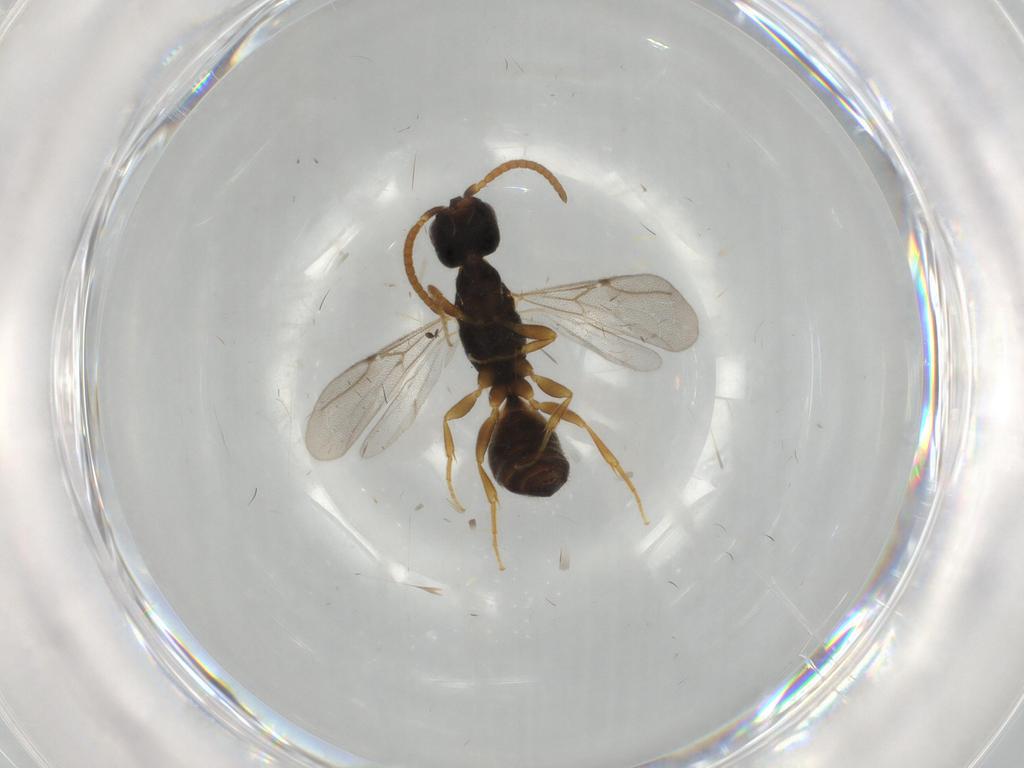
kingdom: Animalia
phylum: Arthropoda
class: Insecta
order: Hymenoptera
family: Bethylidae
